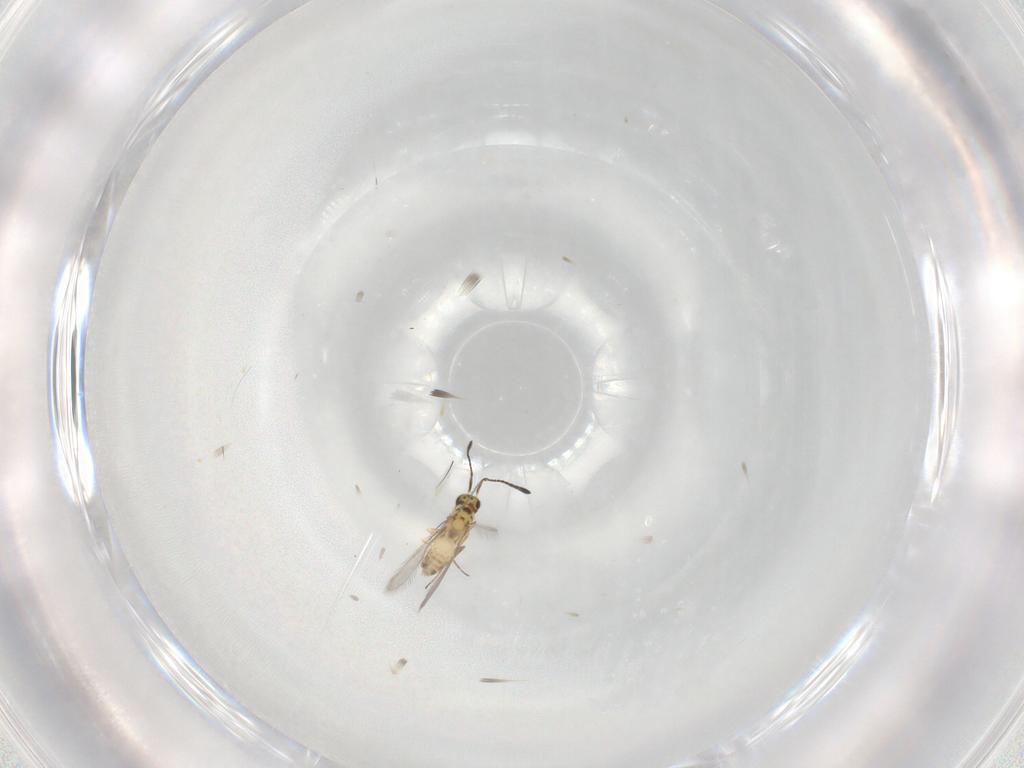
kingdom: Animalia
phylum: Arthropoda
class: Insecta
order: Hymenoptera
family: Mymaridae
